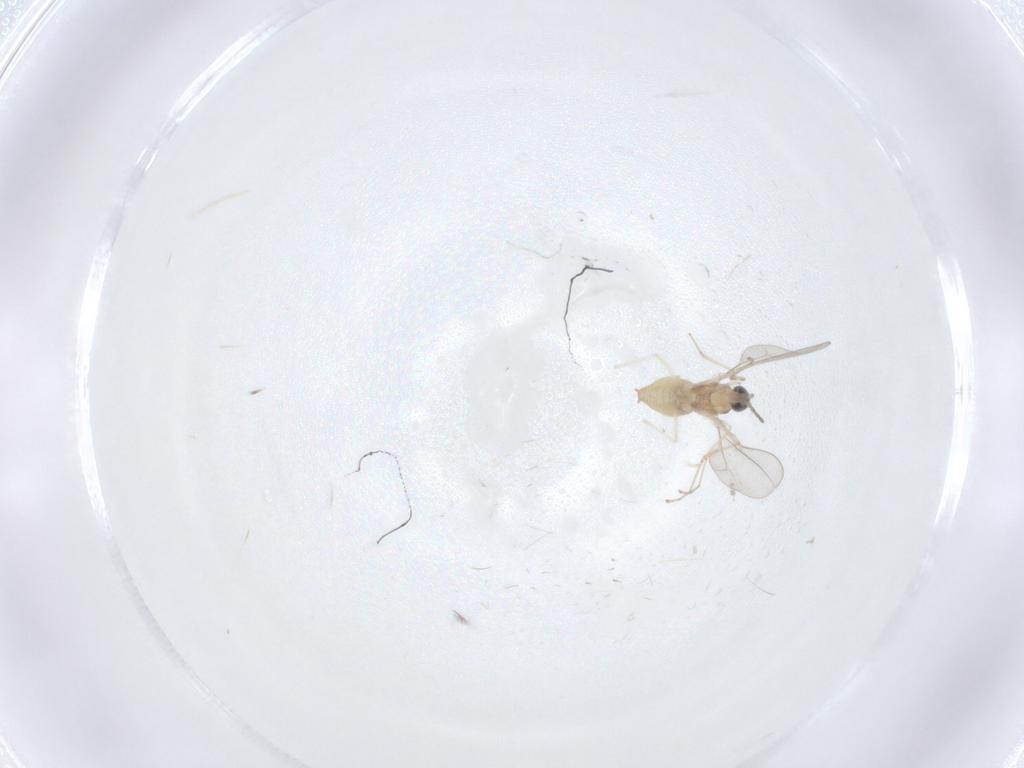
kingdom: Animalia
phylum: Arthropoda
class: Insecta
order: Diptera
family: Cecidomyiidae
